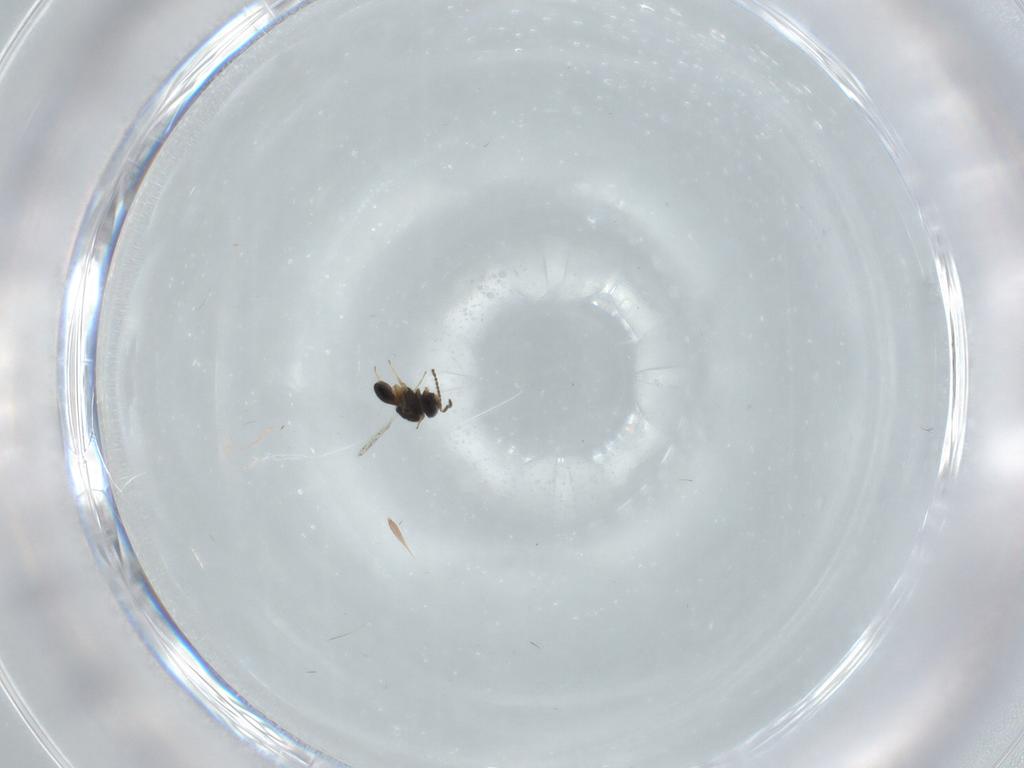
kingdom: Animalia
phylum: Arthropoda
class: Insecta
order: Hymenoptera
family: Scelionidae
